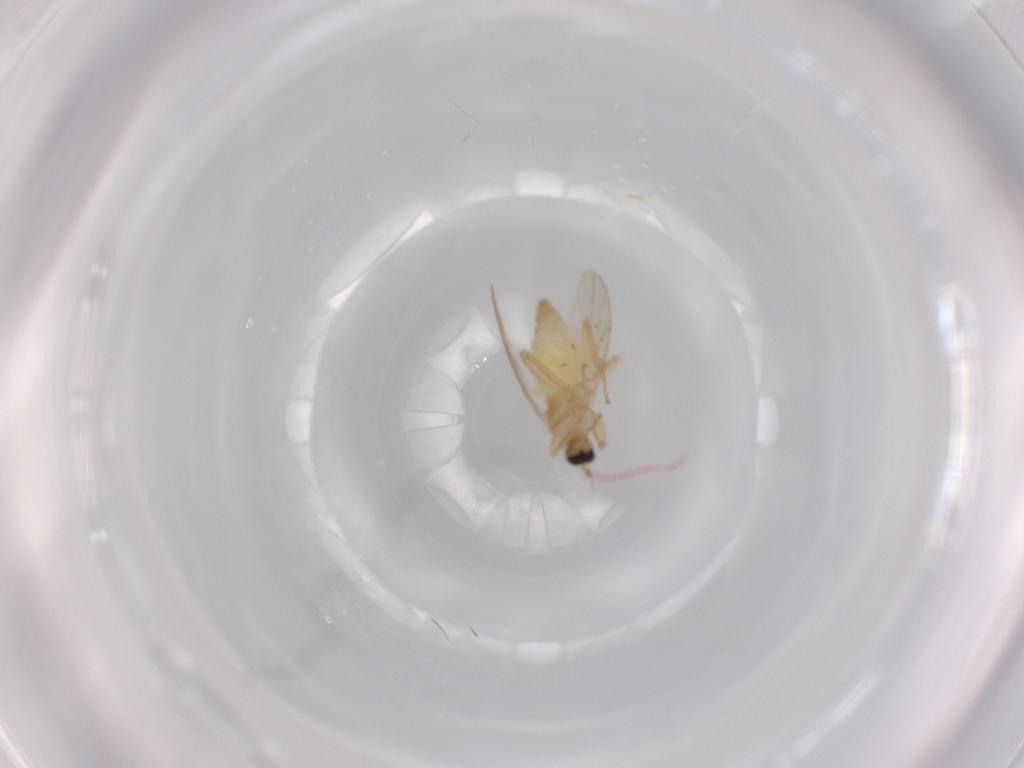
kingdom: Animalia
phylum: Arthropoda
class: Insecta
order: Diptera
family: Hybotidae
